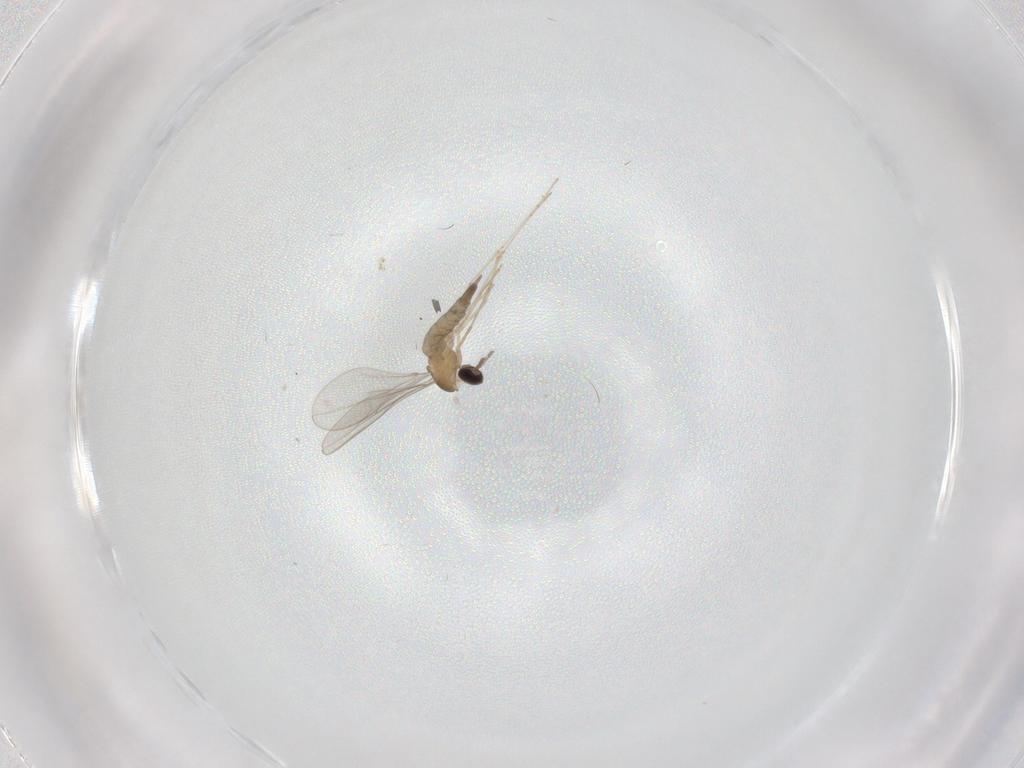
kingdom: Animalia
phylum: Arthropoda
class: Insecta
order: Diptera
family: Cecidomyiidae
